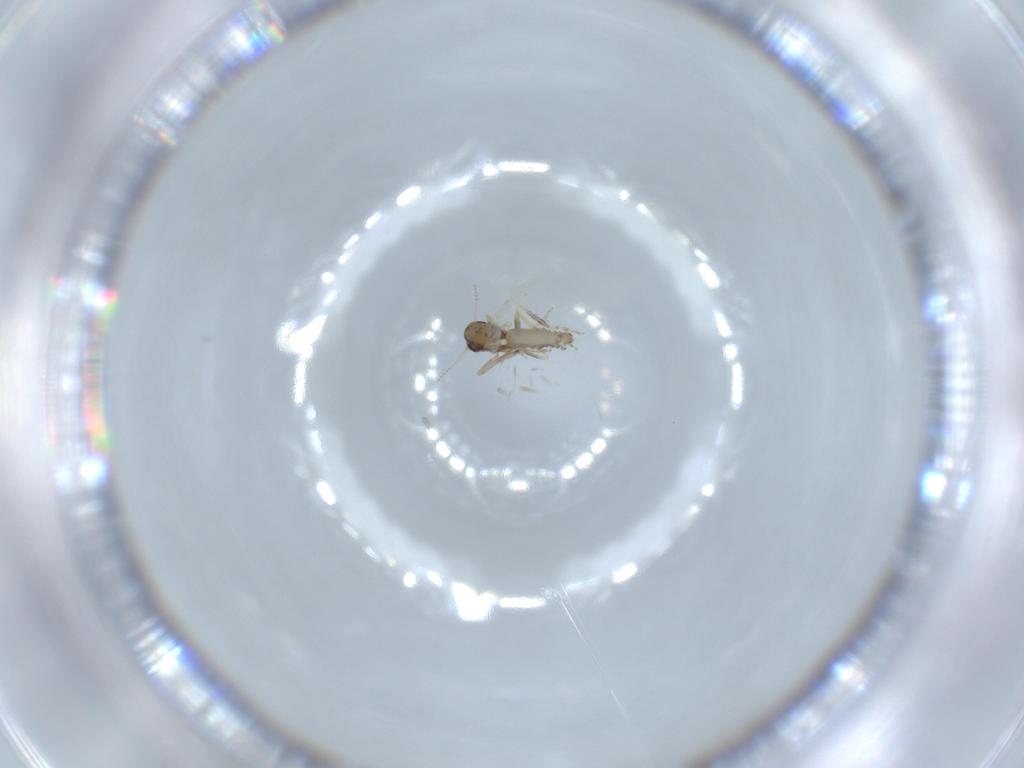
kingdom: Animalia
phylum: Arthropoda
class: Insecta
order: Diptera
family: Ceratopogonidae
